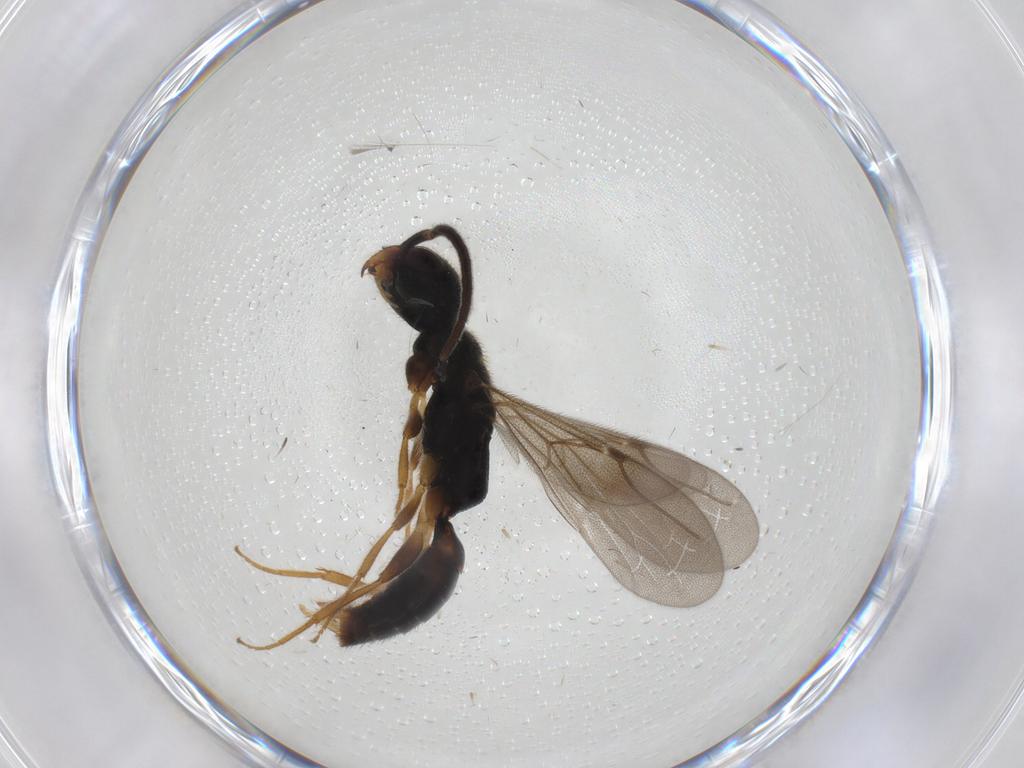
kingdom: Animalia
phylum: Arthropoda
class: Insecta
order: Hymenoptera
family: Bethylidae
